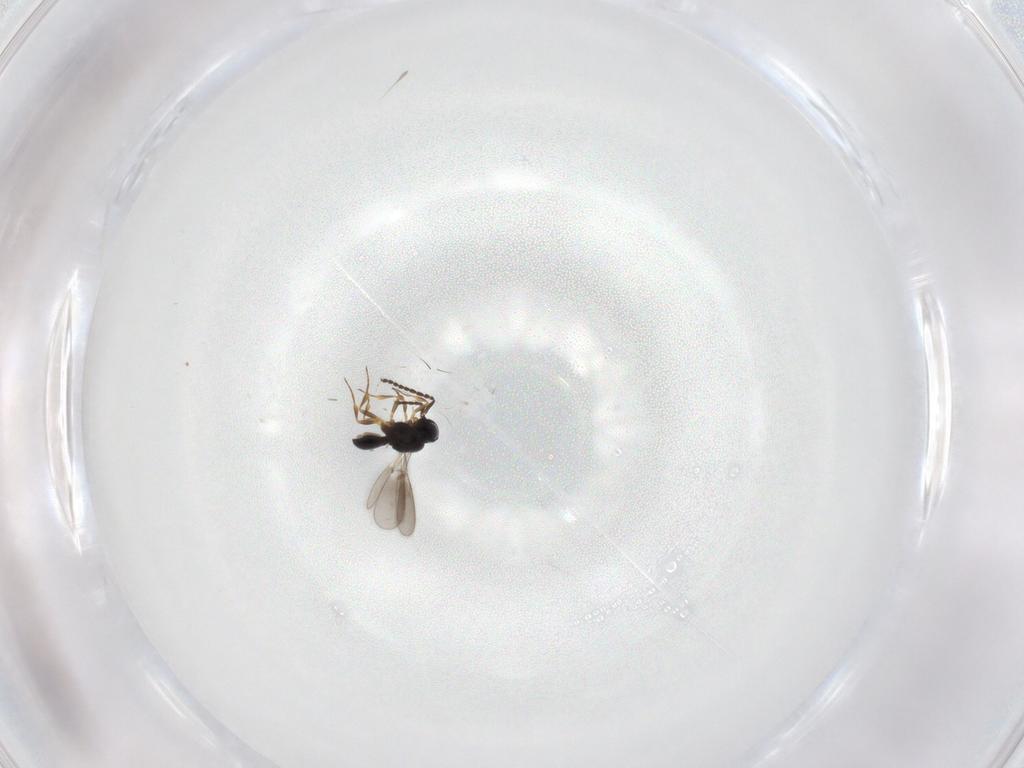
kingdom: Animalia
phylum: Arthropoda
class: Insecta
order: Hymenoptera
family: Scelionidae
